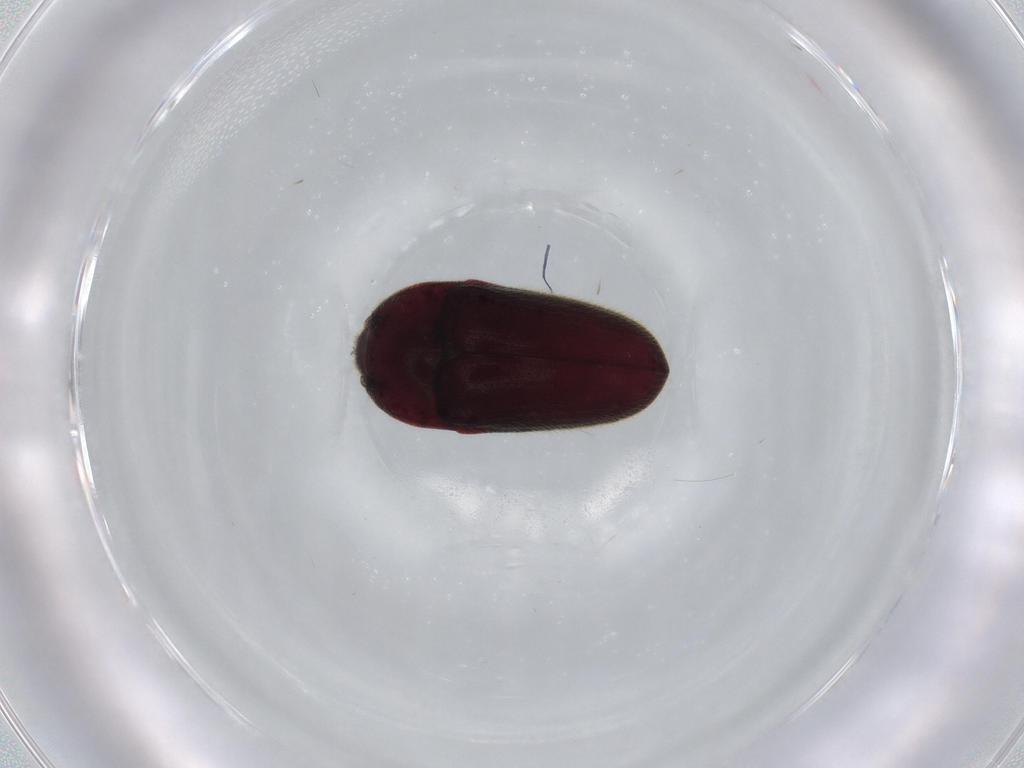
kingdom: Animalia
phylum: Arthropoda
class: Insecta
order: Coleoptera
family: Throscidae
